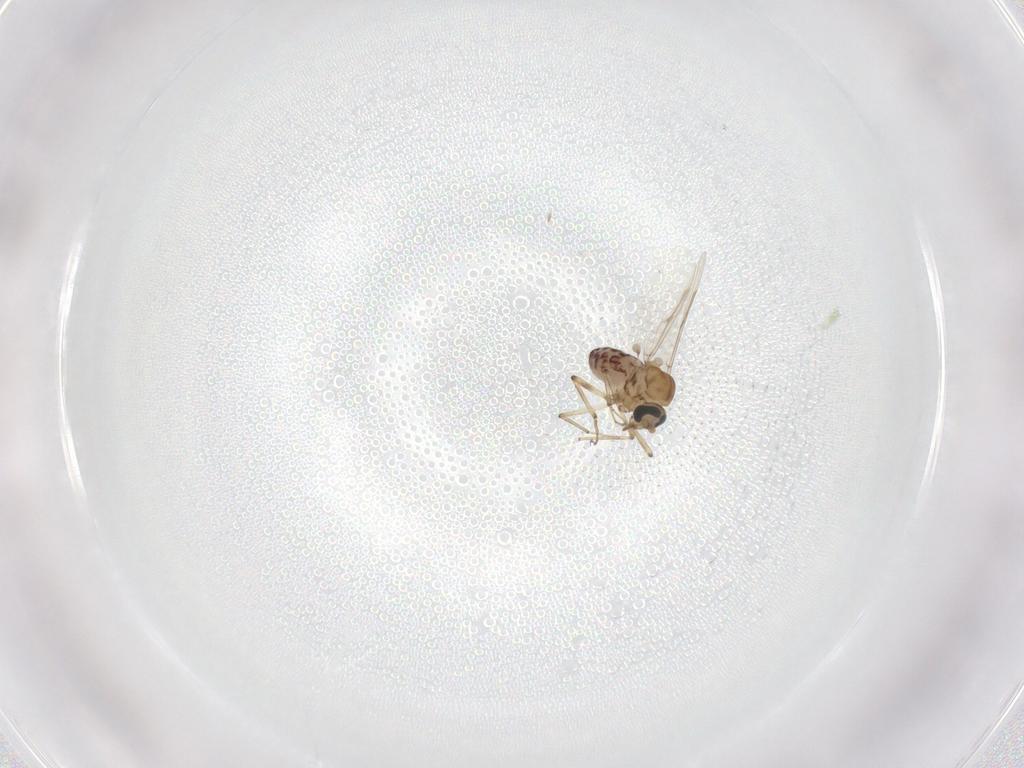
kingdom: Animalia
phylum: Arthropoda
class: Insecta
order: Diptera
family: Ceratopogonidae
